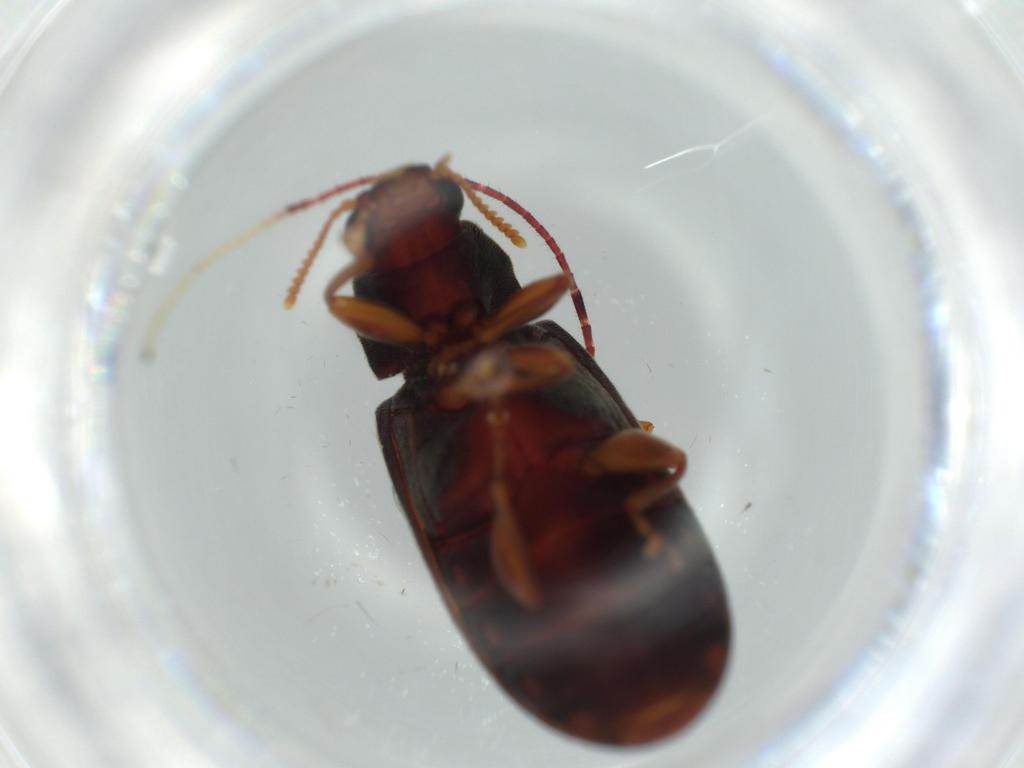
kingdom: Animalia
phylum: Arthropoda
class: Insecta
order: Coleoptera
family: Mycteridae
